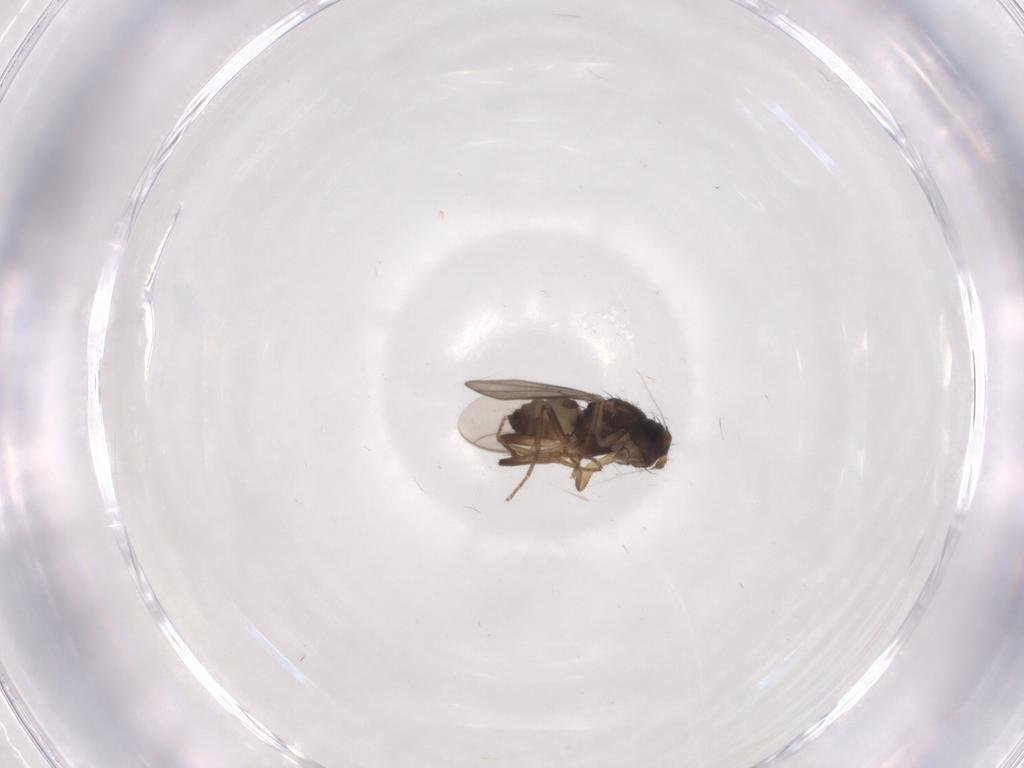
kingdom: Animalia
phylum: Arthropoda
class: Insecta
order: Diptera
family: Sphaeroceridae
